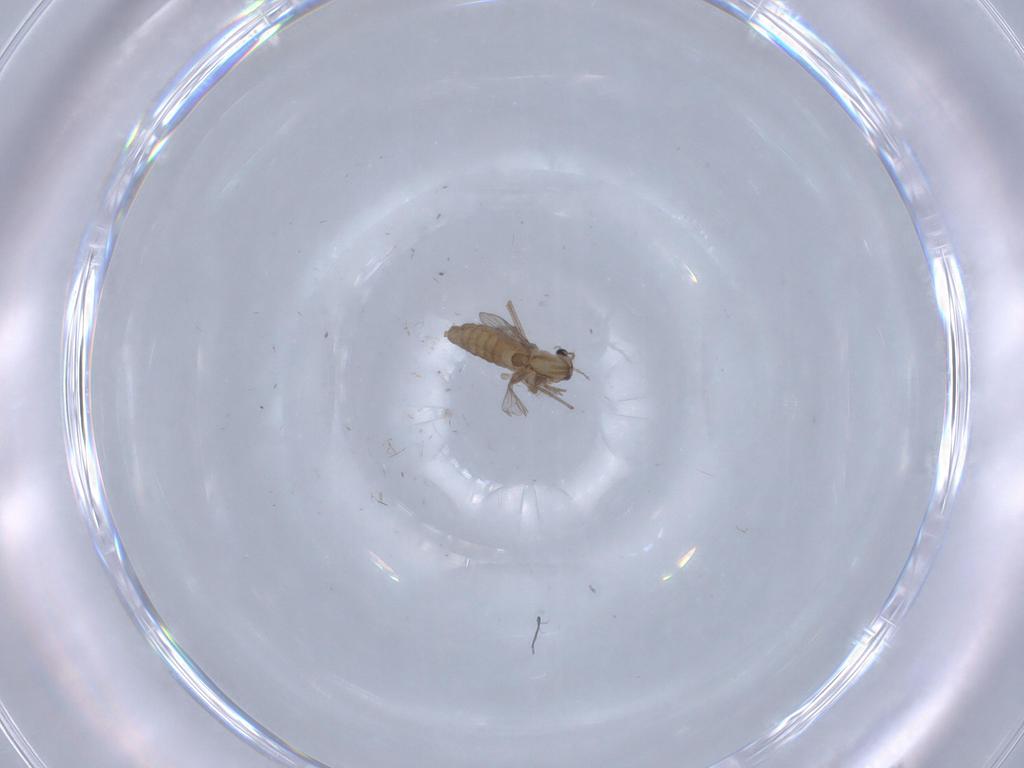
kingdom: Animalia
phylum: Arthropoda
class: Insecta
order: Diptera
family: Chironomidae
